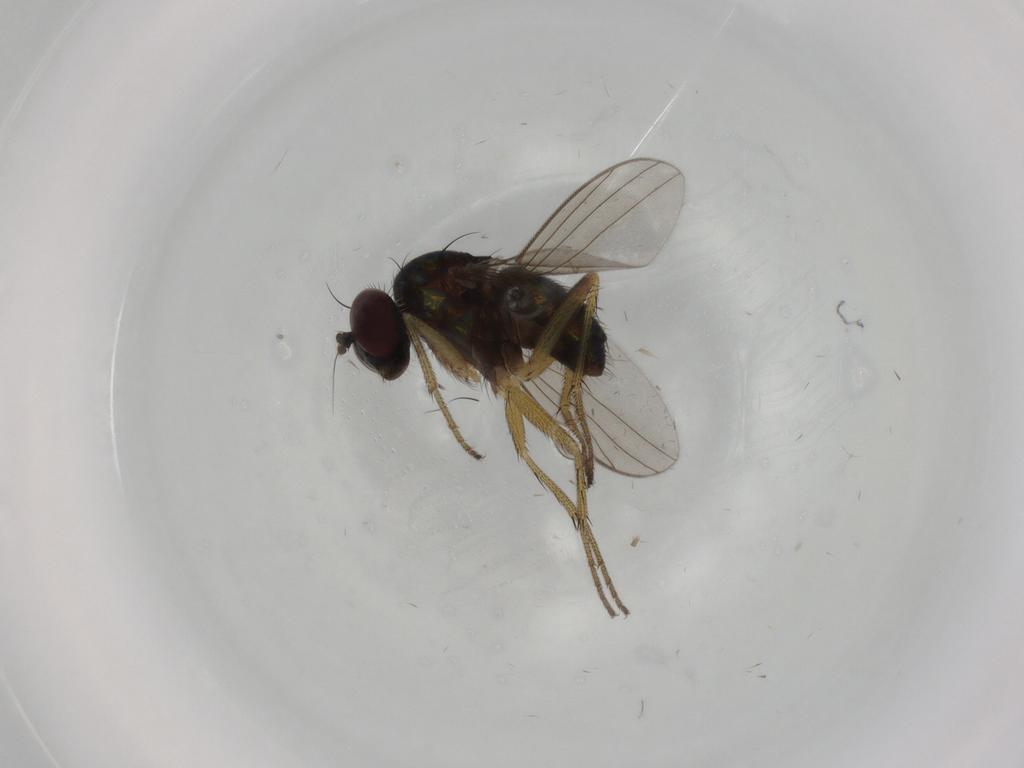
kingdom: Animalia
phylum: Arthropoda
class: Insecta
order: Diptera
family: Dolichopodidae
